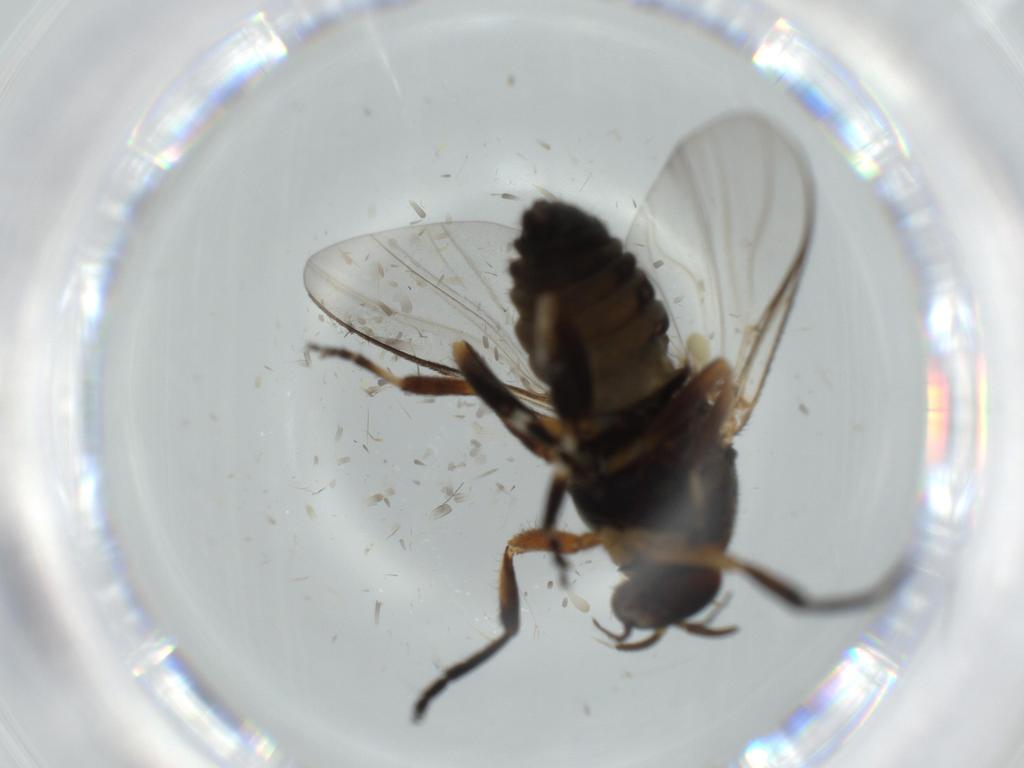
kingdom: Animalia
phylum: Arthropoda
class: Insecta
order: Diptera
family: Psychodidae
